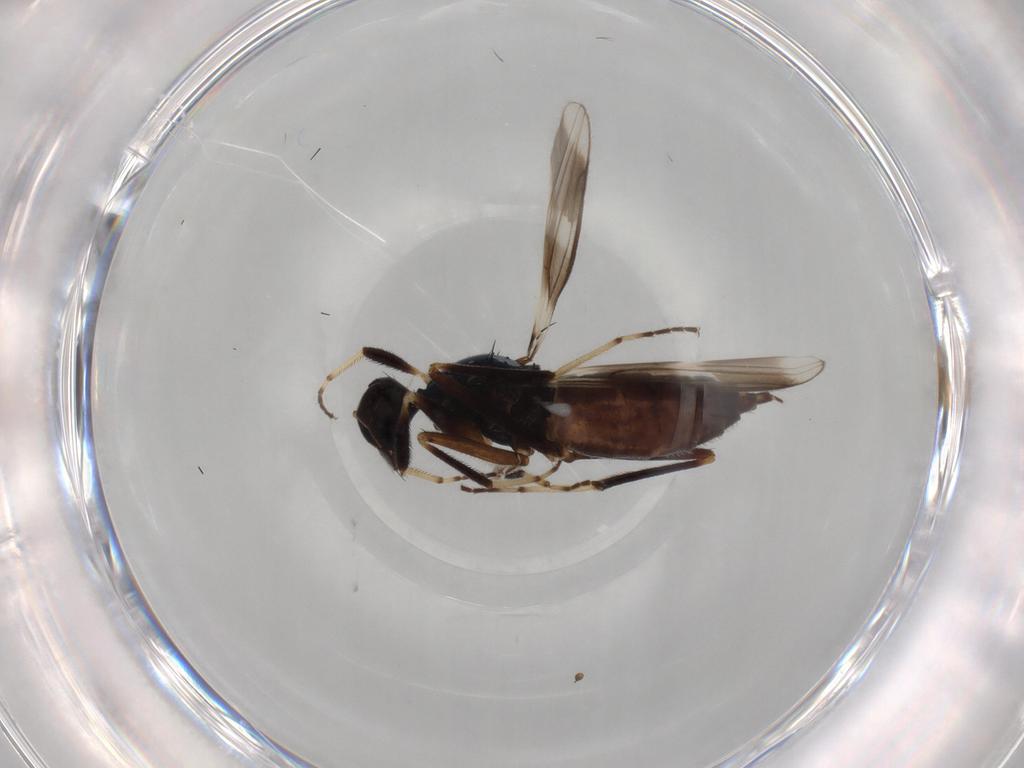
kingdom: Animalia
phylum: Arthropoda
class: Insecta
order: Diptera
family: Hybotidae
